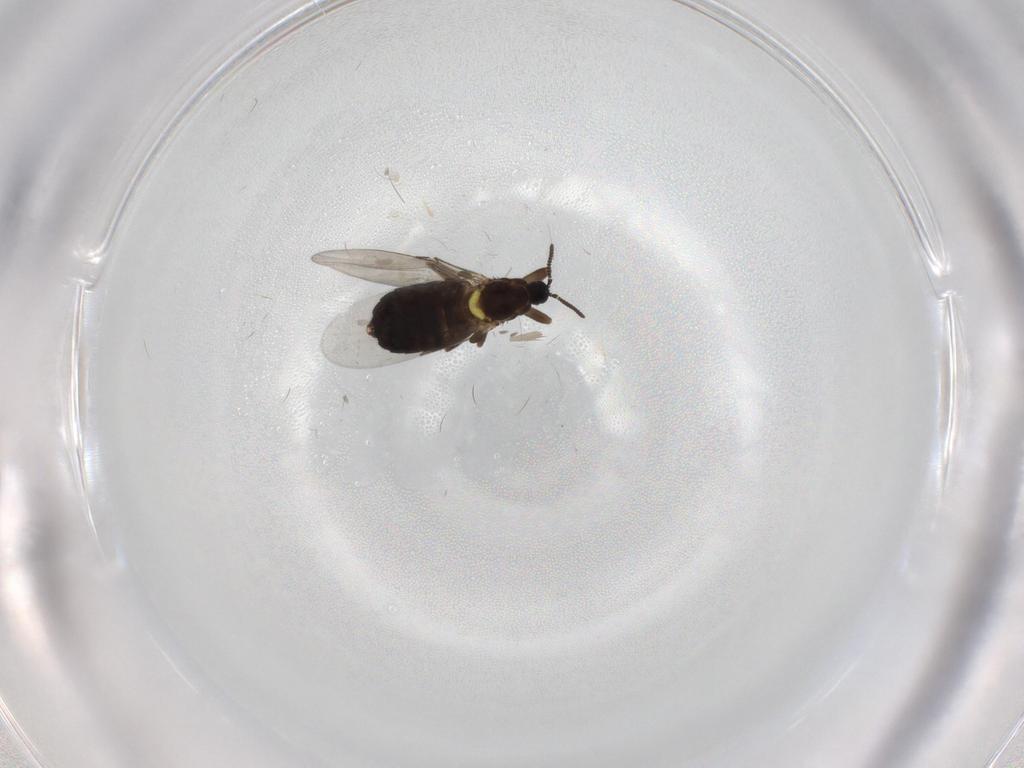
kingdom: Animalia
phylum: Arthropoda
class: Insecta
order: Diptera
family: Scatopsidae
